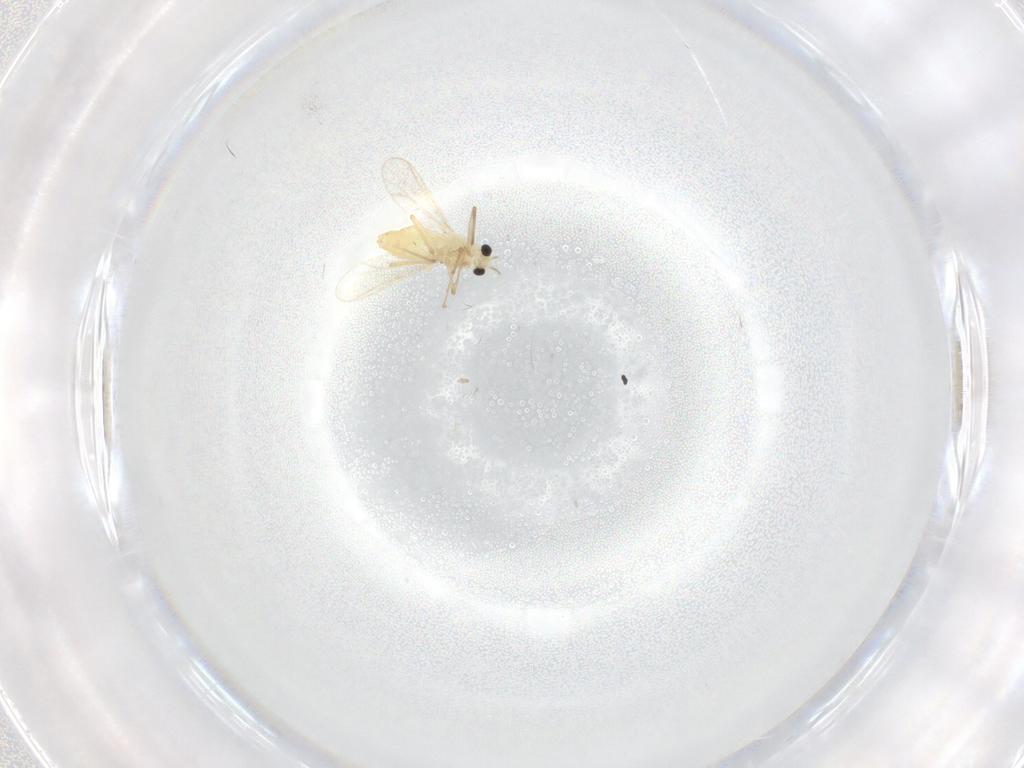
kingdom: Animalia
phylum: Arthropoda
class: Insecta
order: Diptera
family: Chironomidae
